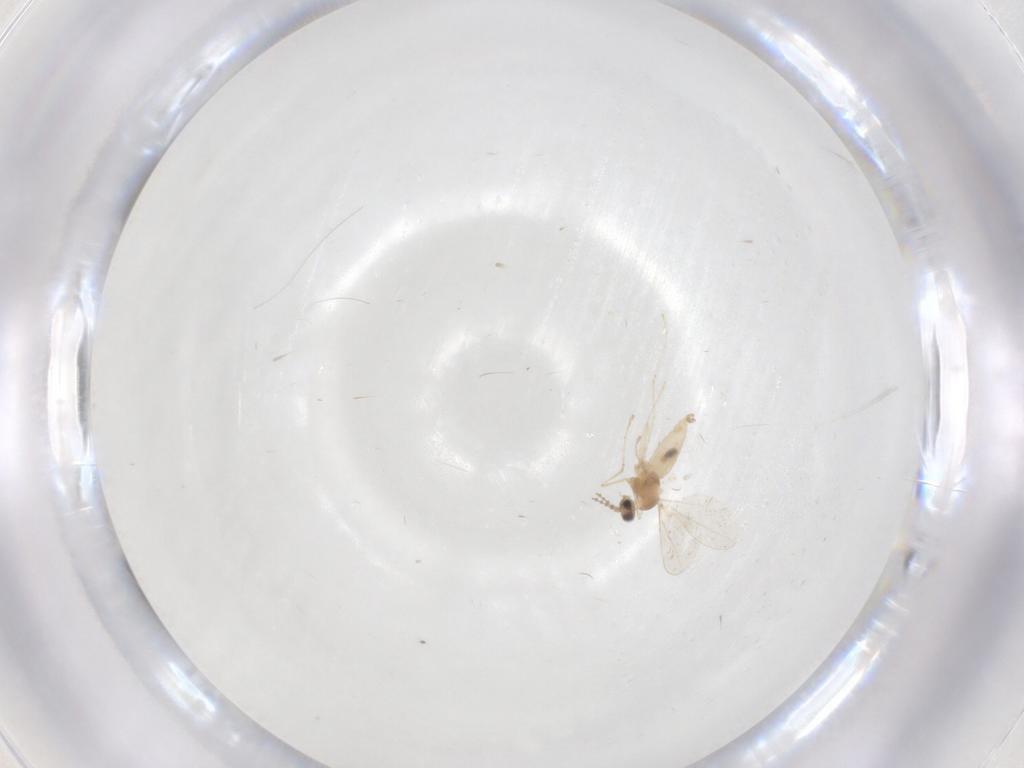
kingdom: Animalia
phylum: Arthropoda
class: Insecta
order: Diptera
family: Cecidomyiidae
